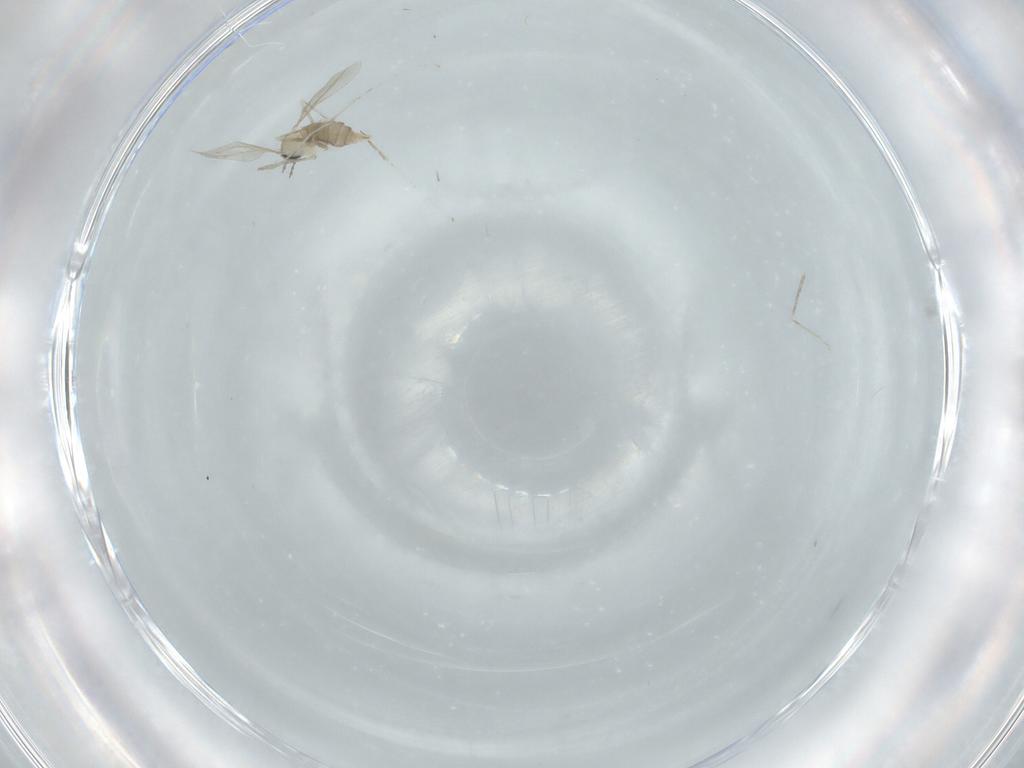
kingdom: Animalia
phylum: Arthropoda
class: Insecta
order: Diptera
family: Cecidomyiidae
